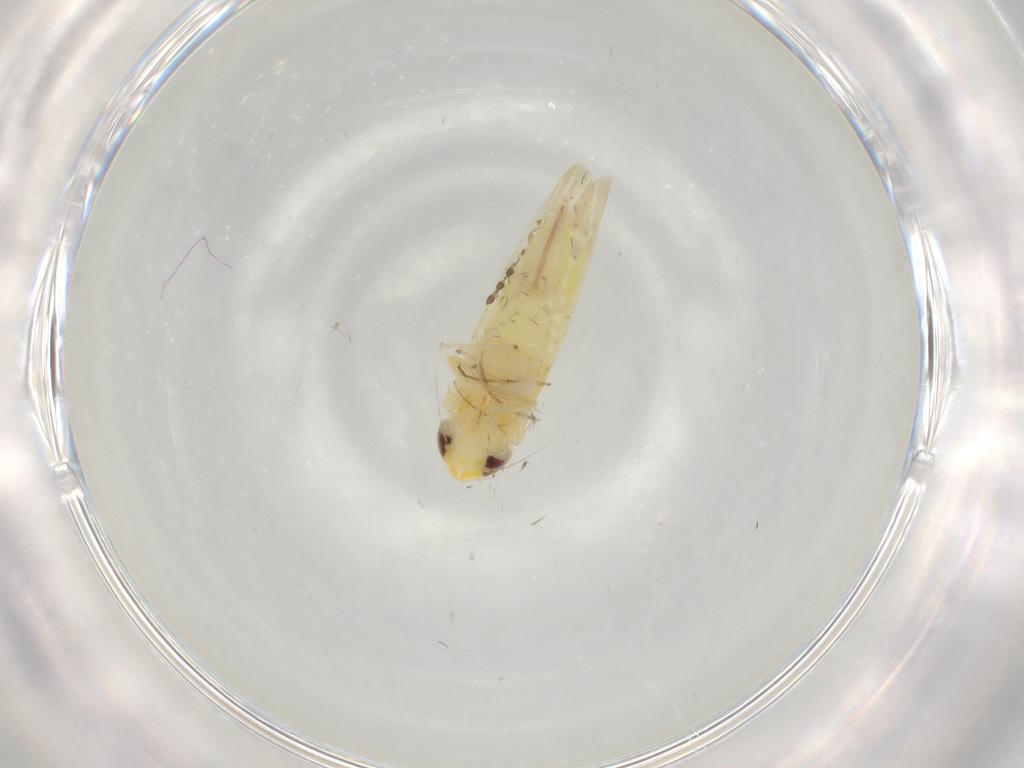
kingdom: Animalia
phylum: Arthropoda
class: Insecta
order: Hemiptera
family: Cicadellidae
